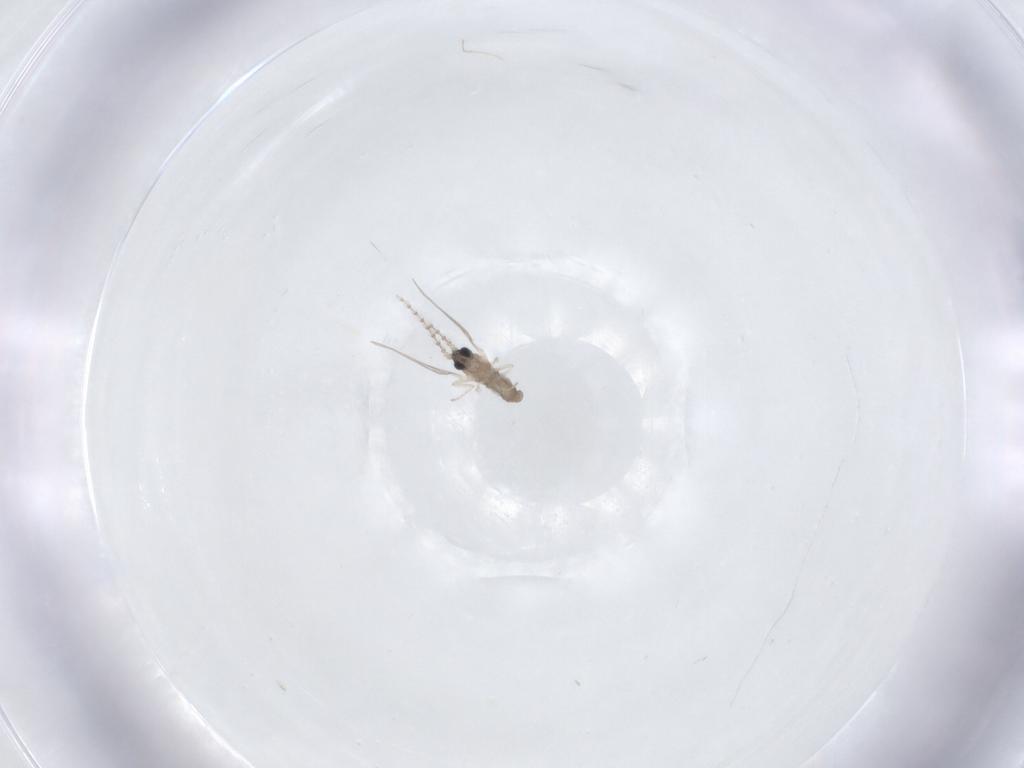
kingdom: Animalia
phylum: Arthropoda
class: Insecta
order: Diptera
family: Cecidomyiidae
